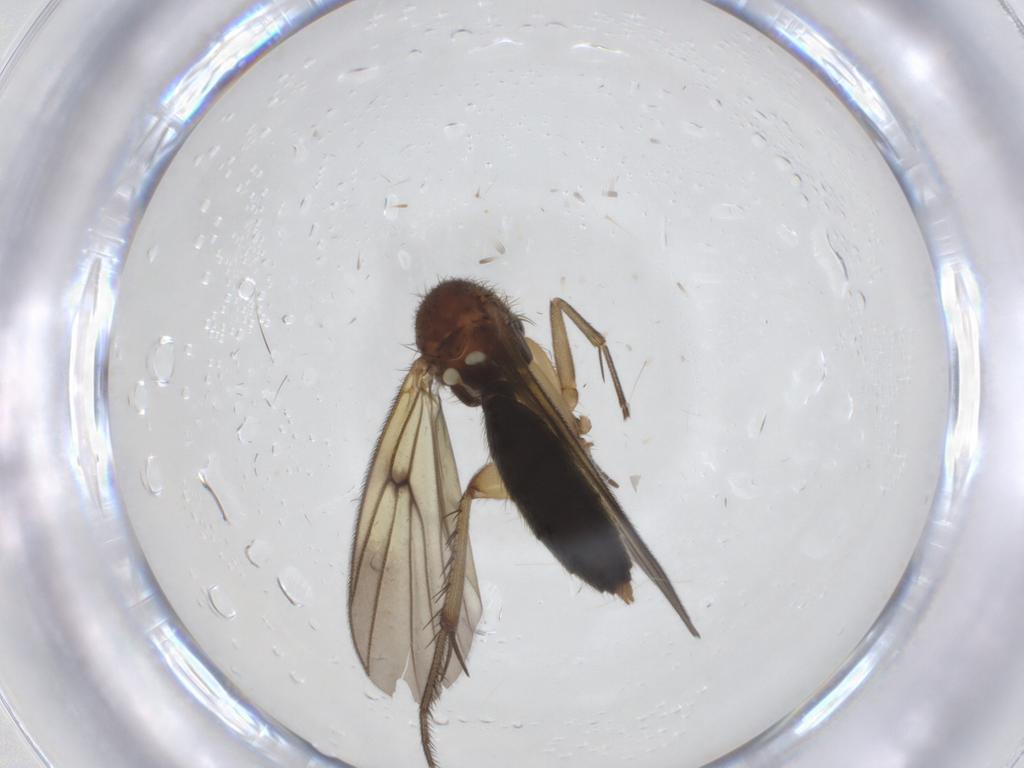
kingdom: Animalia
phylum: Arthropoda
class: Insecta
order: Diptera
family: Mycetophilidae
